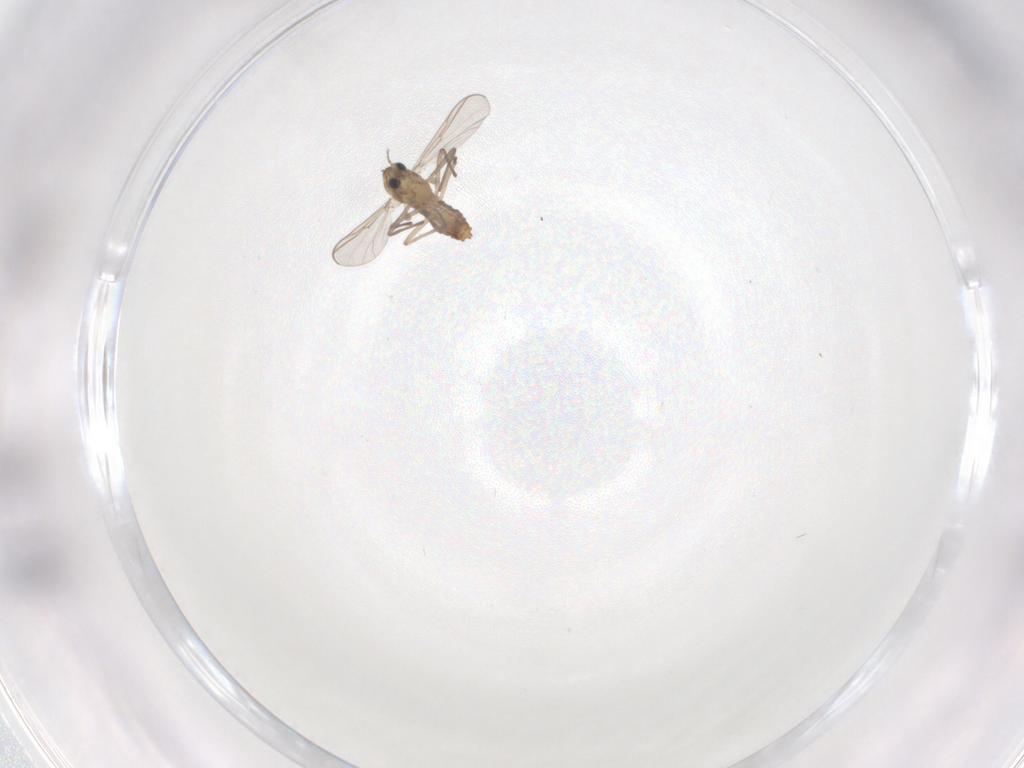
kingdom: Animalia
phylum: Arthropoda
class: Insecta
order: Diptera
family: Chironomidae
